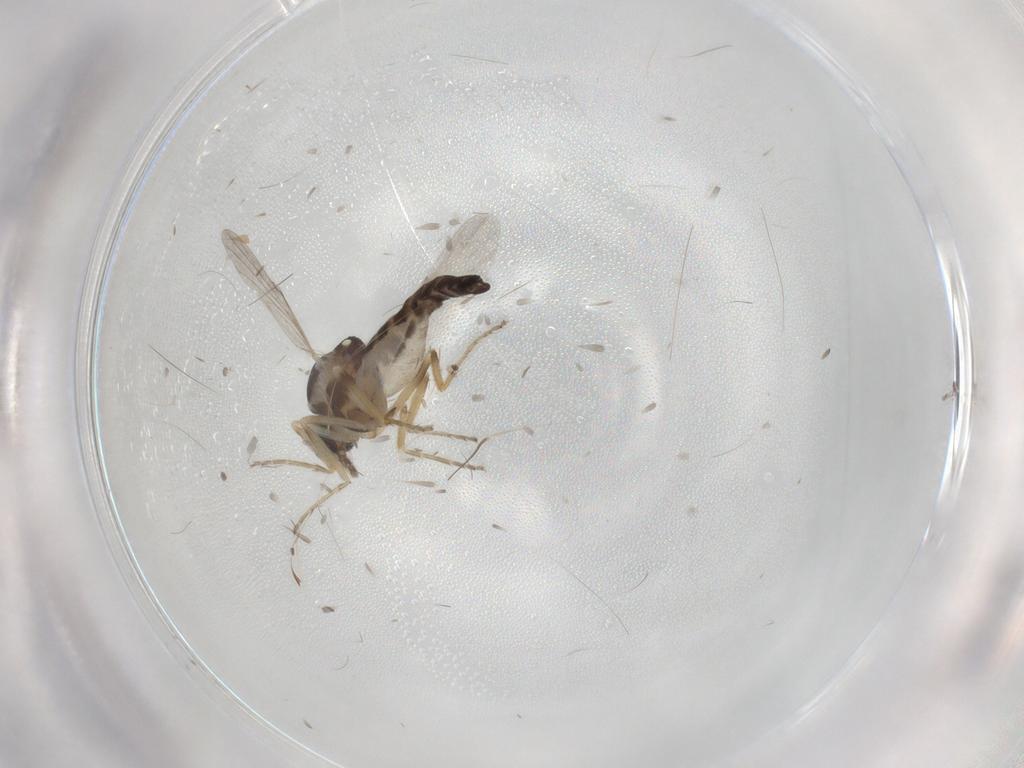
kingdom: Animalia
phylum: Arthropoda
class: Insecta
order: Diptera
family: Ceratopogonidae
